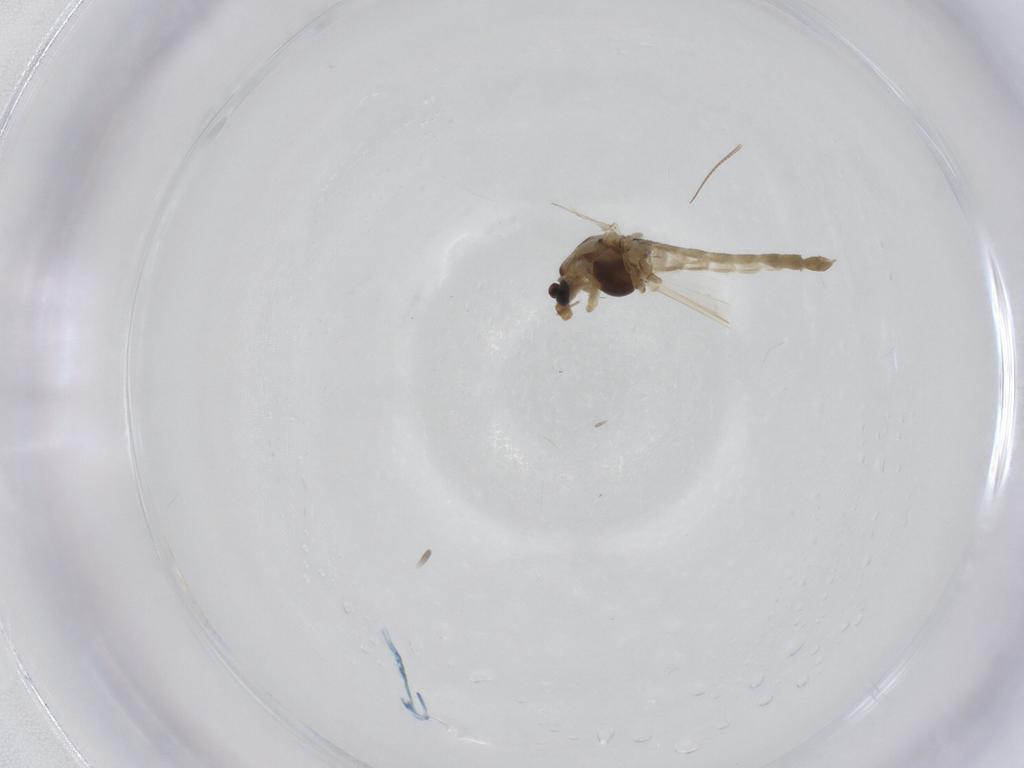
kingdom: Animalia
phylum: Arthropoda
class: Insecta
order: Diptera
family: Chironomidae
